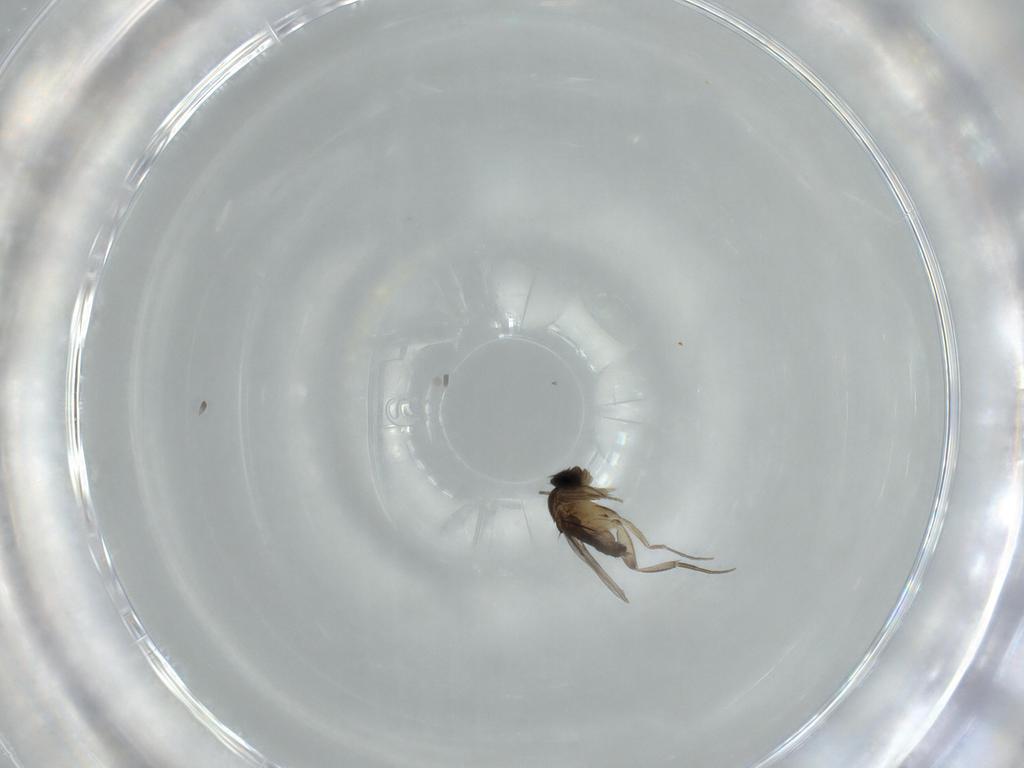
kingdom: Animalia
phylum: Arthropoda
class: Insecta
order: Diptera
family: Phoridae
